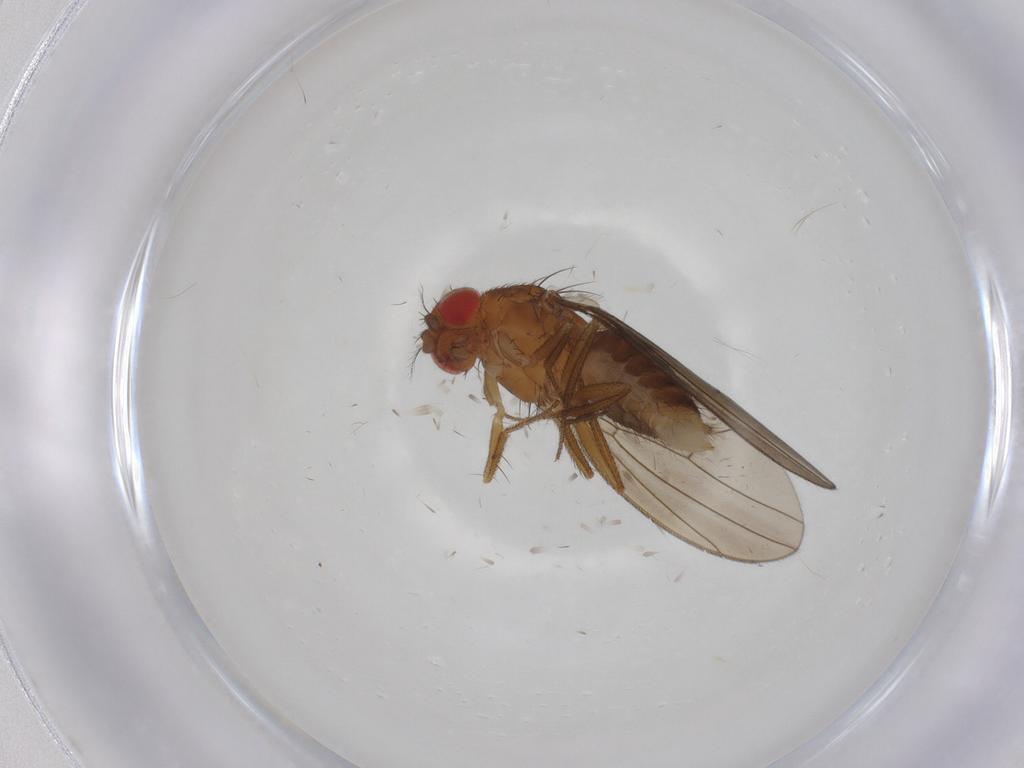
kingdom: Animalia
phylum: Arthropoda
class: Insecta
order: Diptera
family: Drosophilidae
